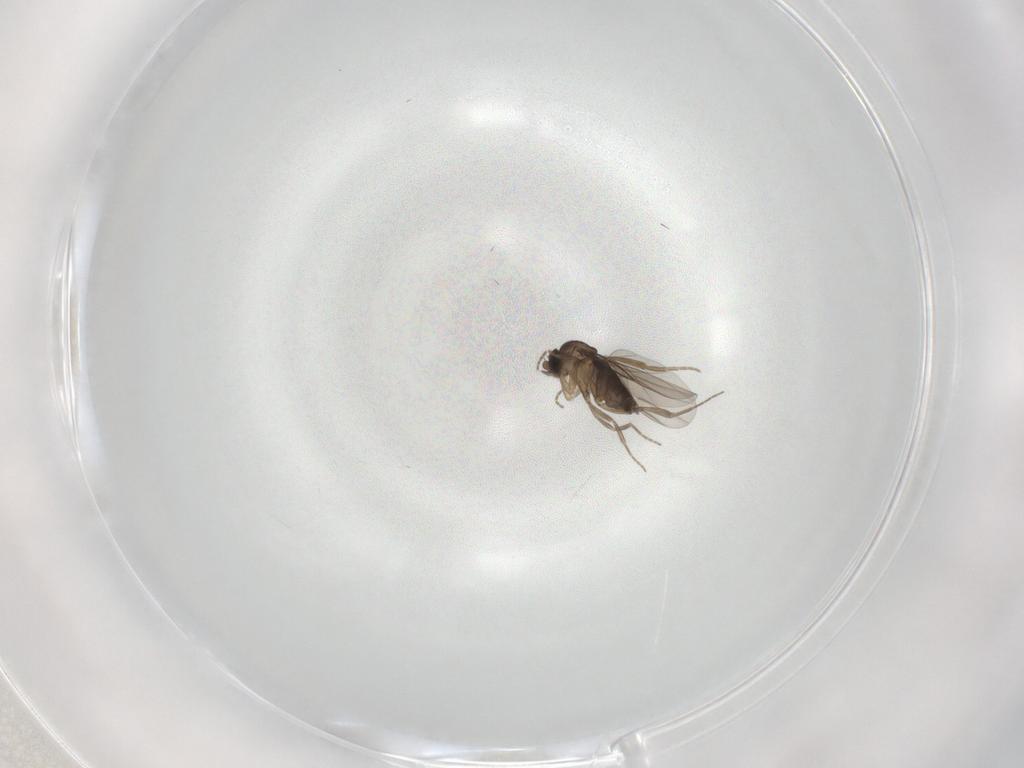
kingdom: Animalia
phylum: Arthropoda
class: Insecta
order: Diptera
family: Phoridae
